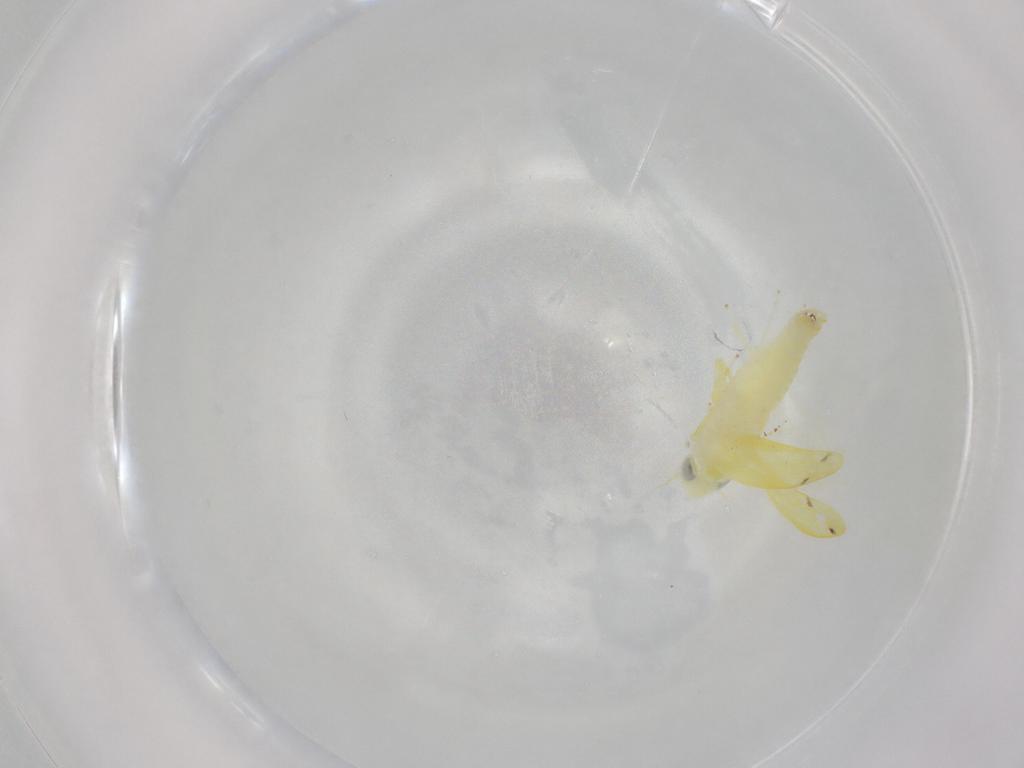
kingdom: Animalia
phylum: Arthropoda
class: Insecta
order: Hemiptera
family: Cicadellidae
